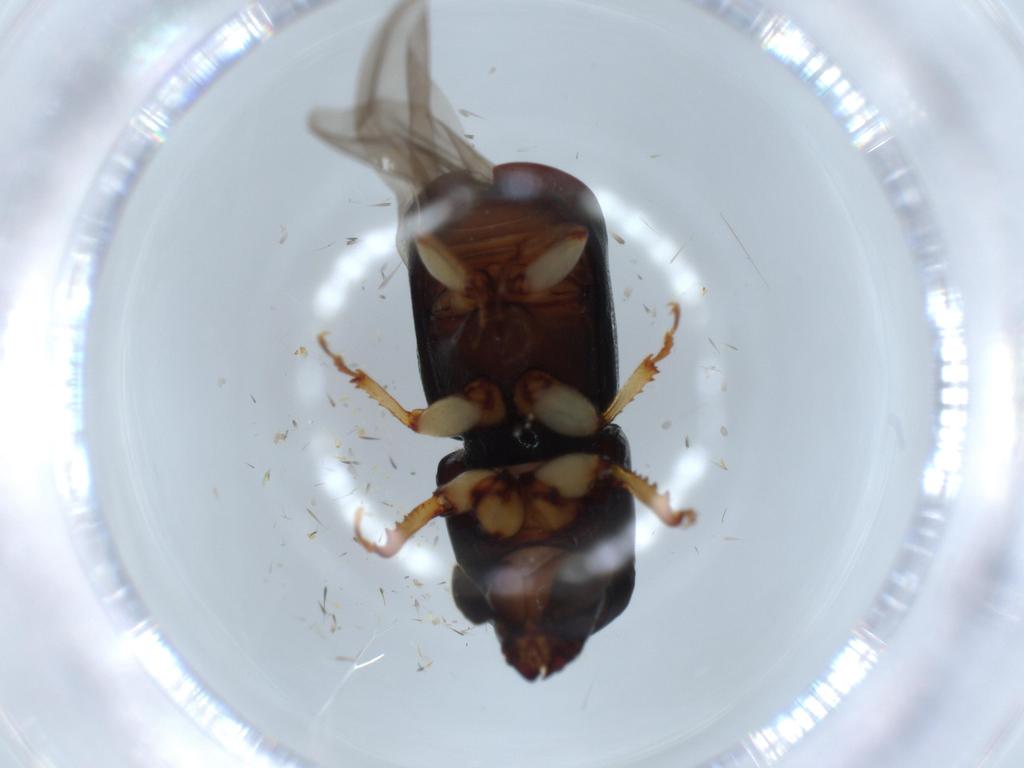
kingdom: Animalia
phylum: Arthropoda
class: Insecta
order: Coleoptera
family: Curculionidae
